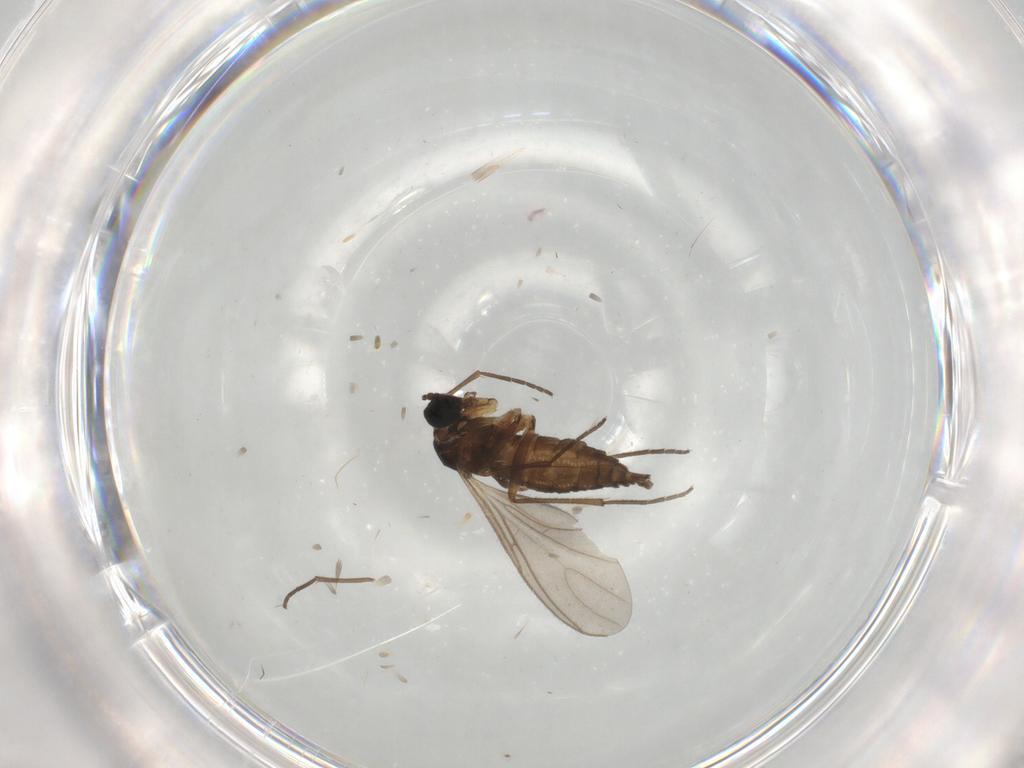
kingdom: Animalia
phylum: Arthropoda
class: Insecta
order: Diptera
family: Sciaridae
